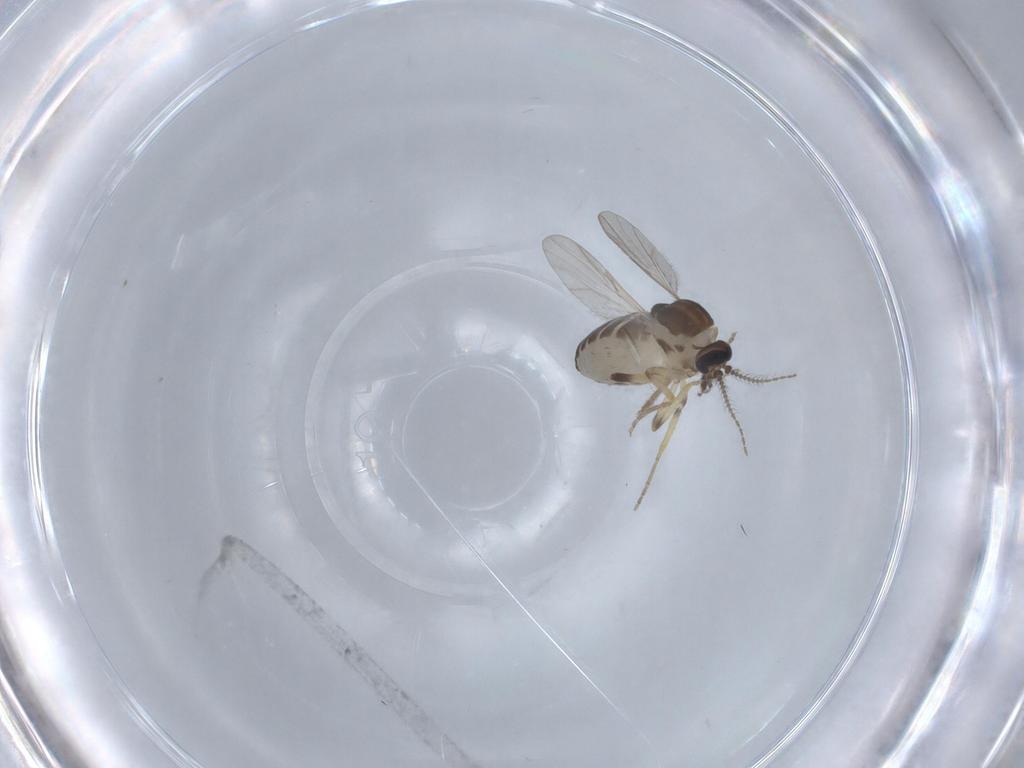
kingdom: Animalia
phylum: Arthropoda
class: Insecta
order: Diptera
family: Ceratopogonidae
